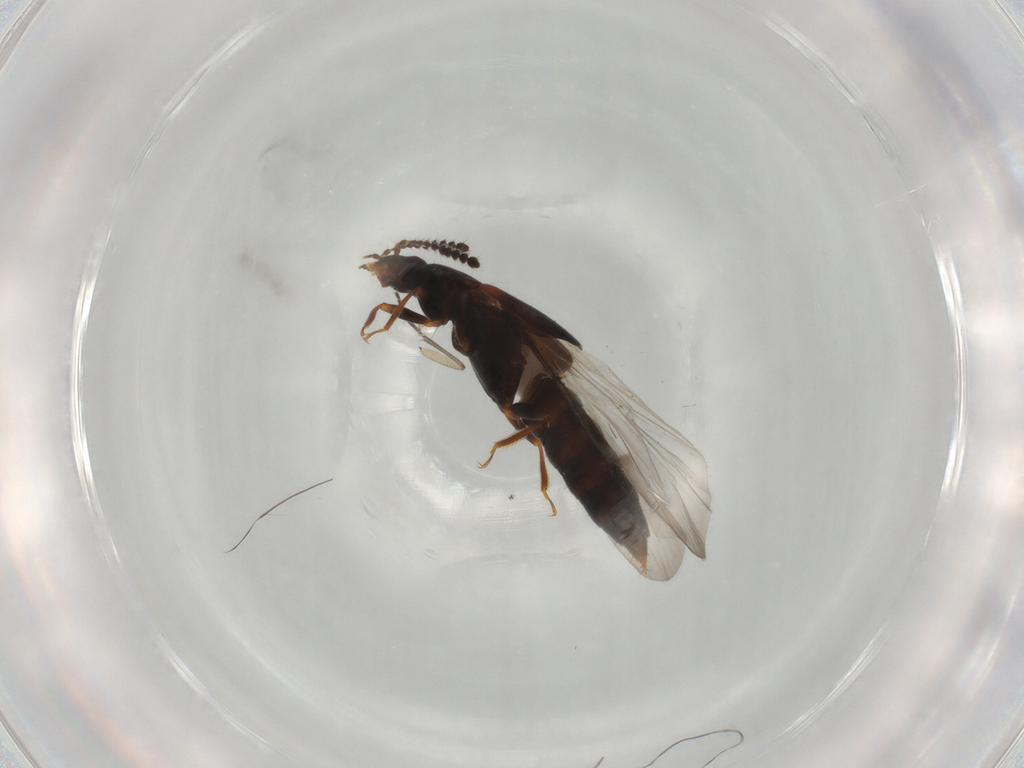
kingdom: Animalia
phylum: Arthropoda
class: Insecta
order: Coleoptera
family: Staphylinidae
